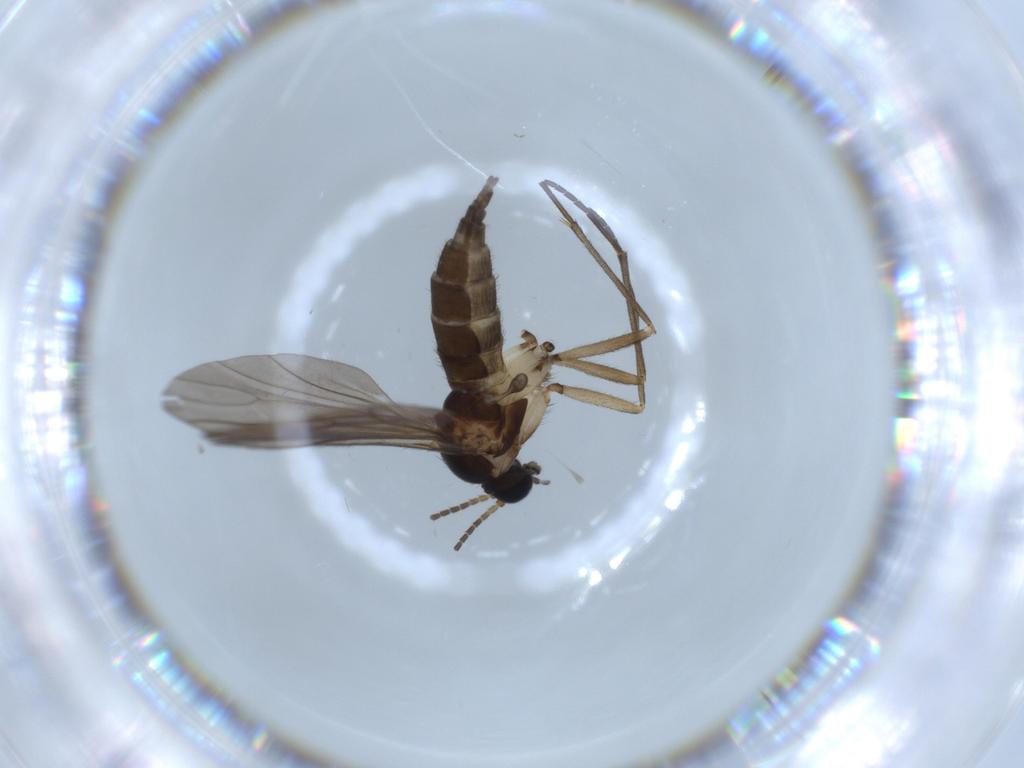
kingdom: Animalia
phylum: Arthropoda
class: Insecta
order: Diptera
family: Sciaridae
